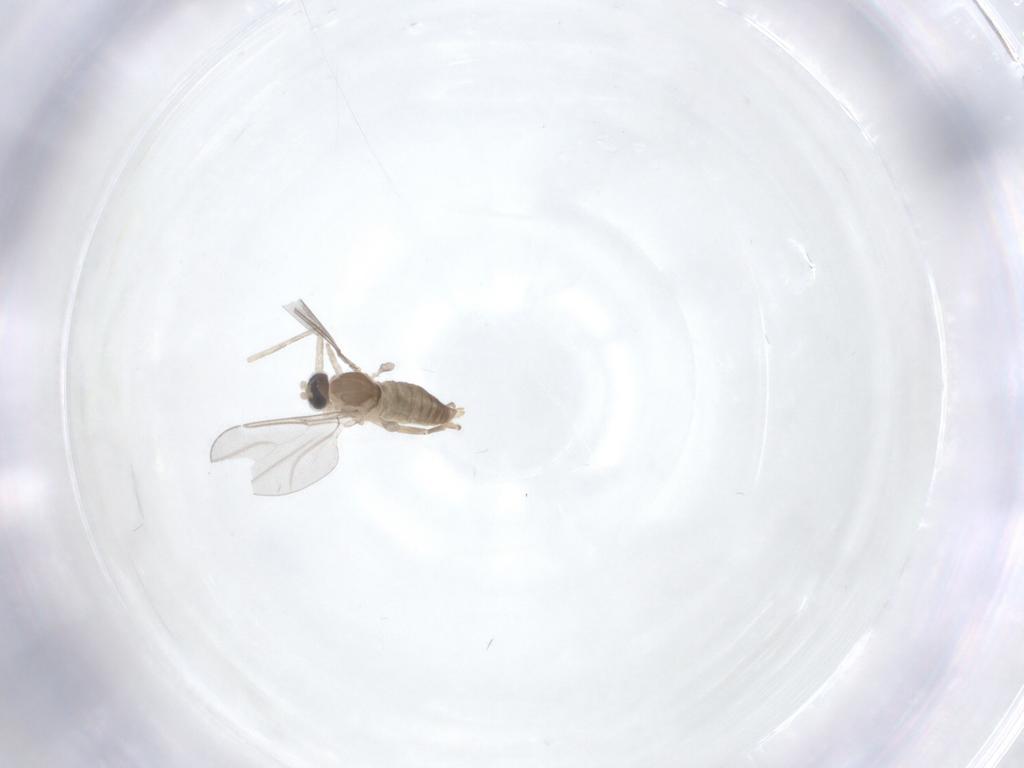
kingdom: Animalia
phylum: Arthropoda
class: Insecta
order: Diptera
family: Cecidomyiidae
